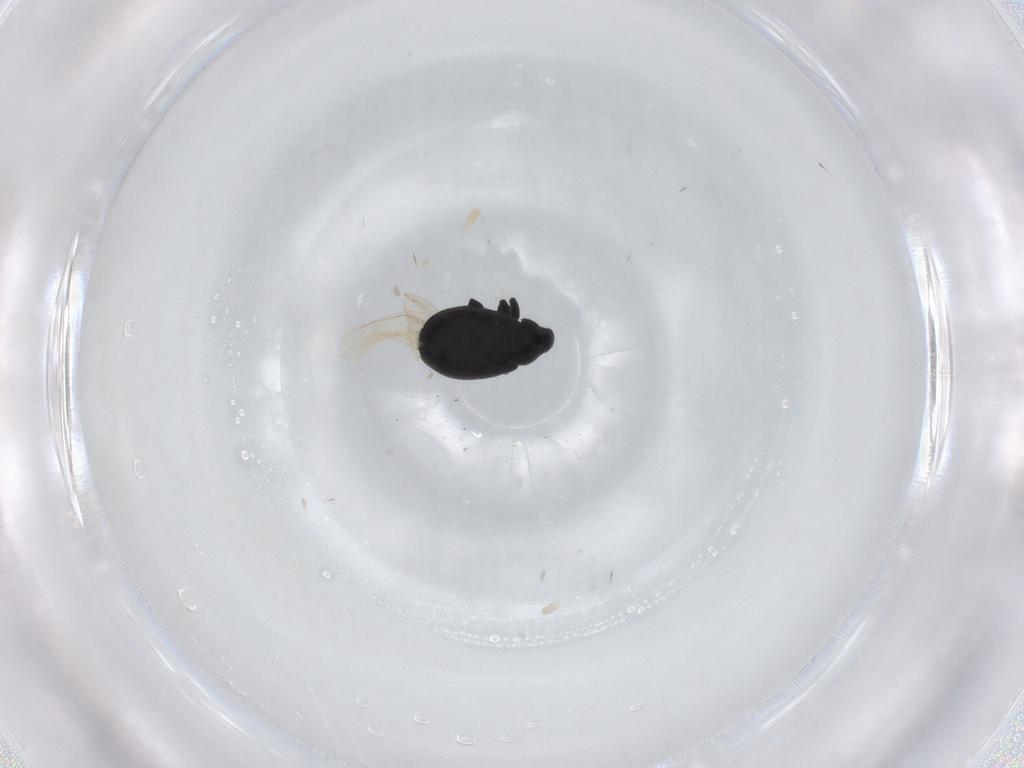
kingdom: Animalia
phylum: Arthropoda
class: Insecta
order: Coleoptera
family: Curculionidae
